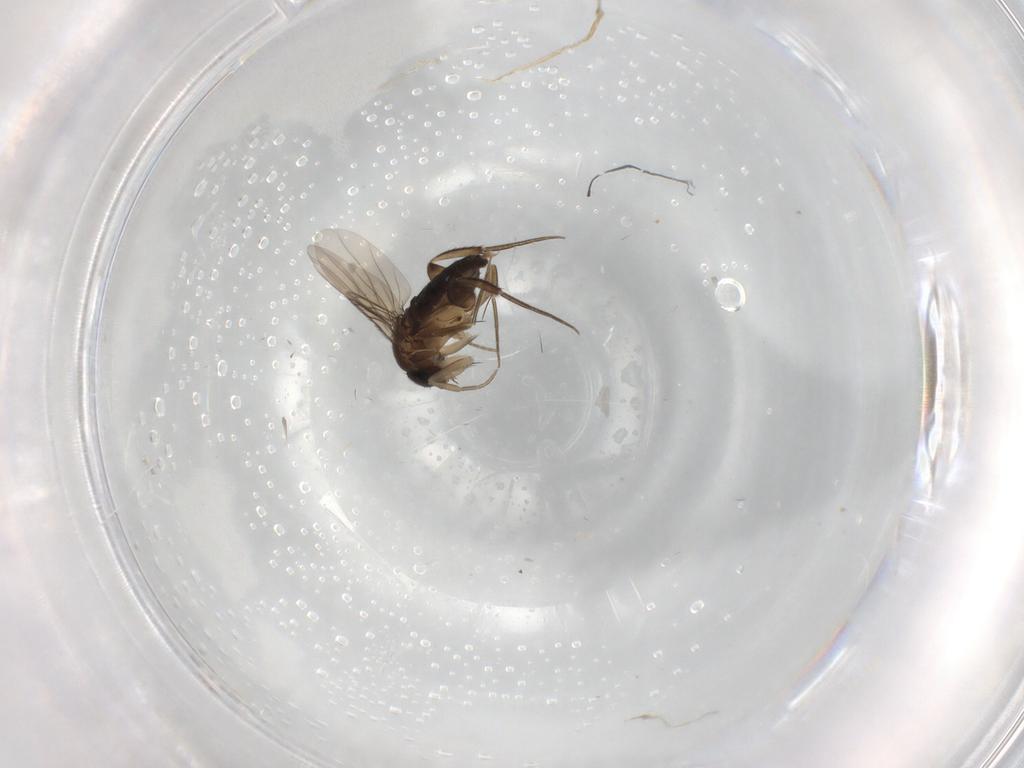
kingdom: Animalia
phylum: Arthropoda
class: Insecta
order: Diptera
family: Phoridae
